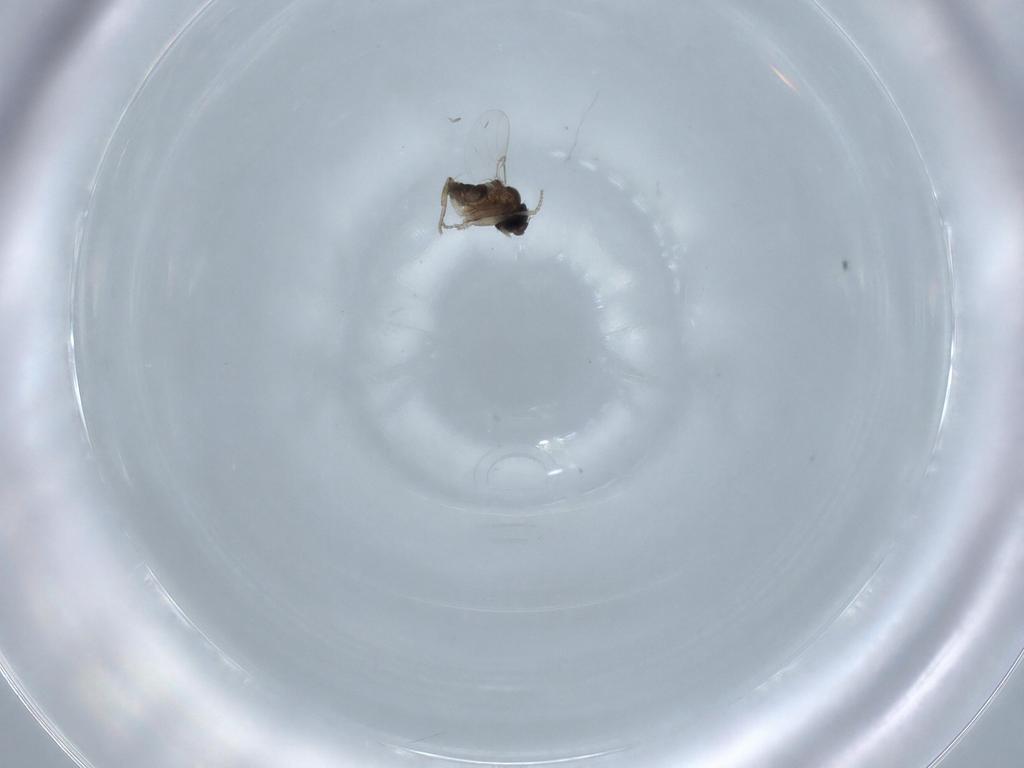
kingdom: Animalia
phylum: Arthropoda
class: Insecta
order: Diptera
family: Phoridae
